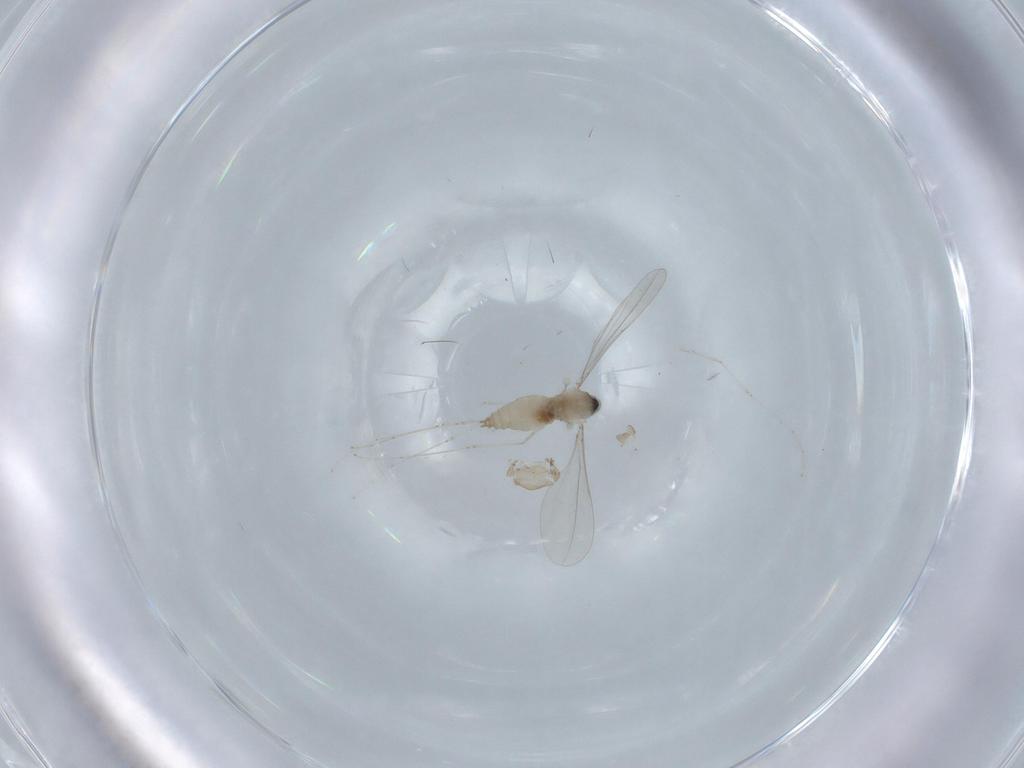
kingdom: Animalia
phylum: Arthropoda
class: Insecta
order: Diptera
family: Cecidomyiidae
